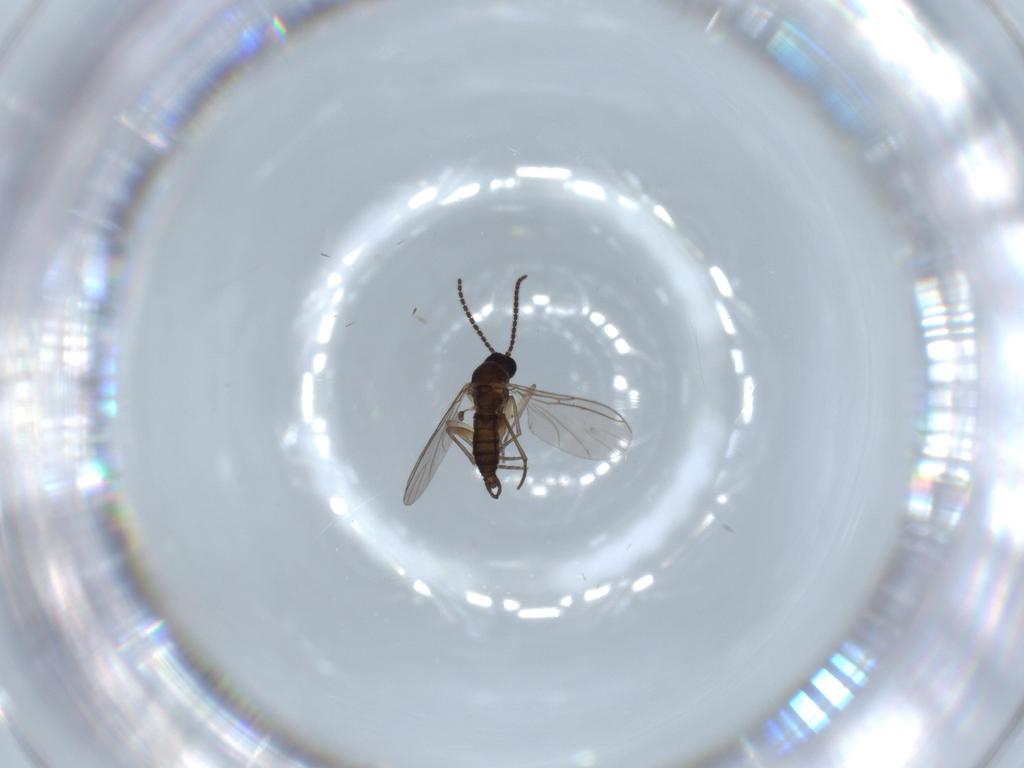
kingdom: Animalia
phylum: Arthropoda
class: Insecta
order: Diptera
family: Sciaridae
